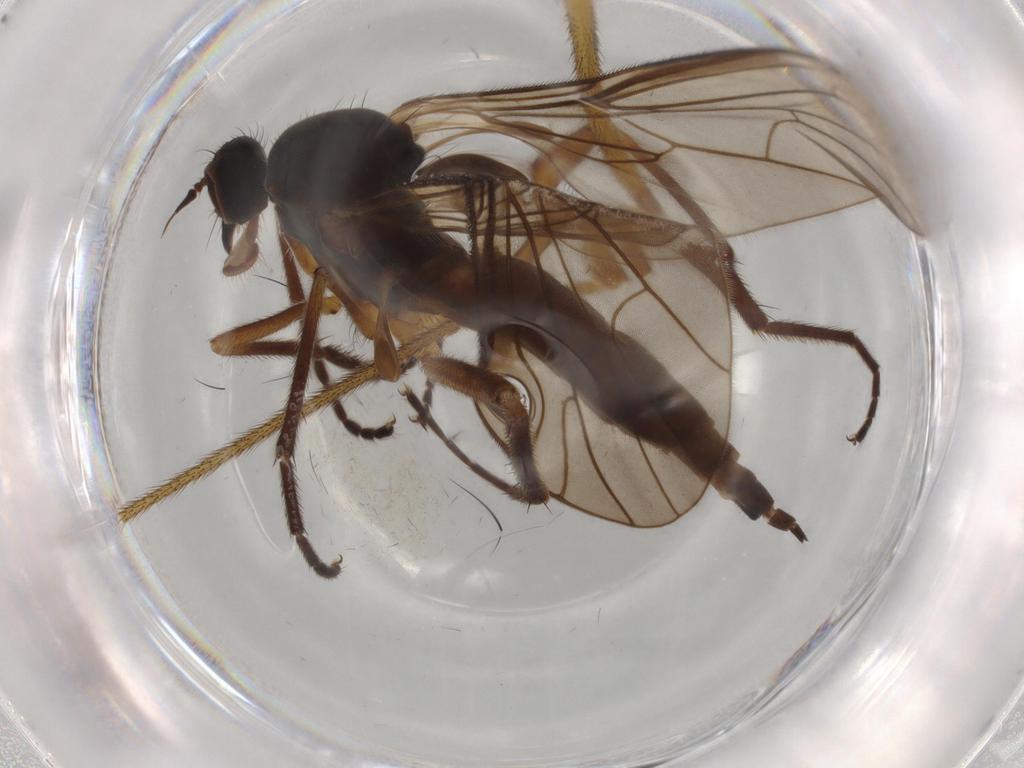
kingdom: Animalia
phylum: Arthropoda
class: Insecta
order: Diptera
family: Empididae
